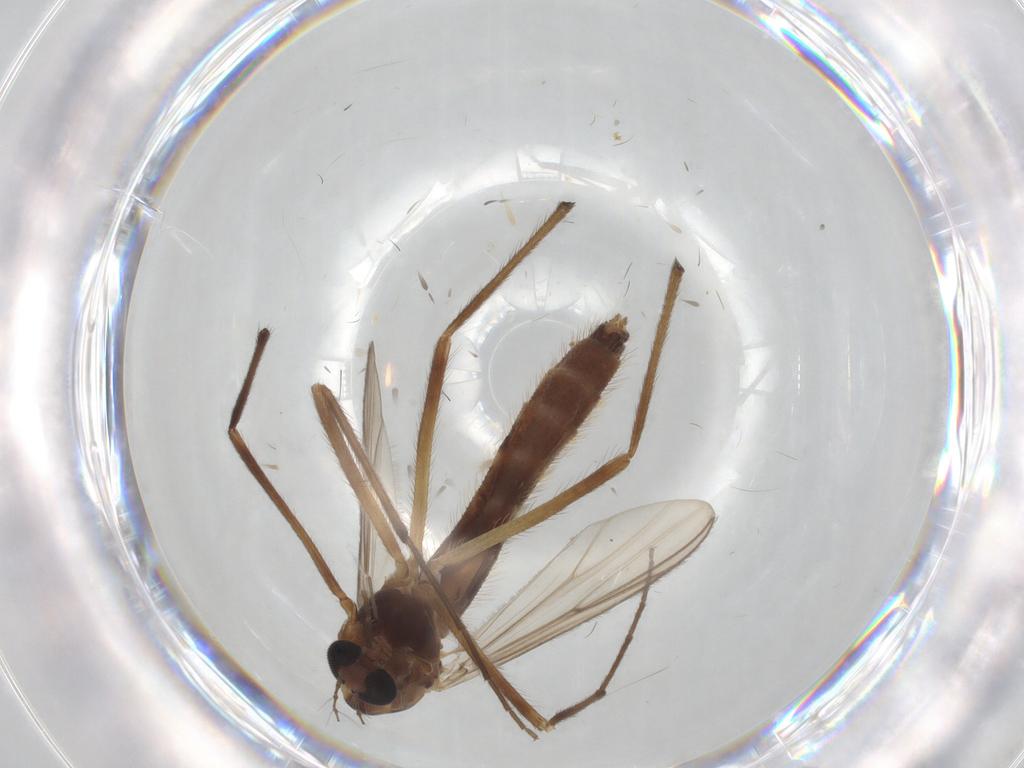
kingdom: Animalia
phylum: Arthropoda
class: Insecta
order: Diptera
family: Chironomidae
